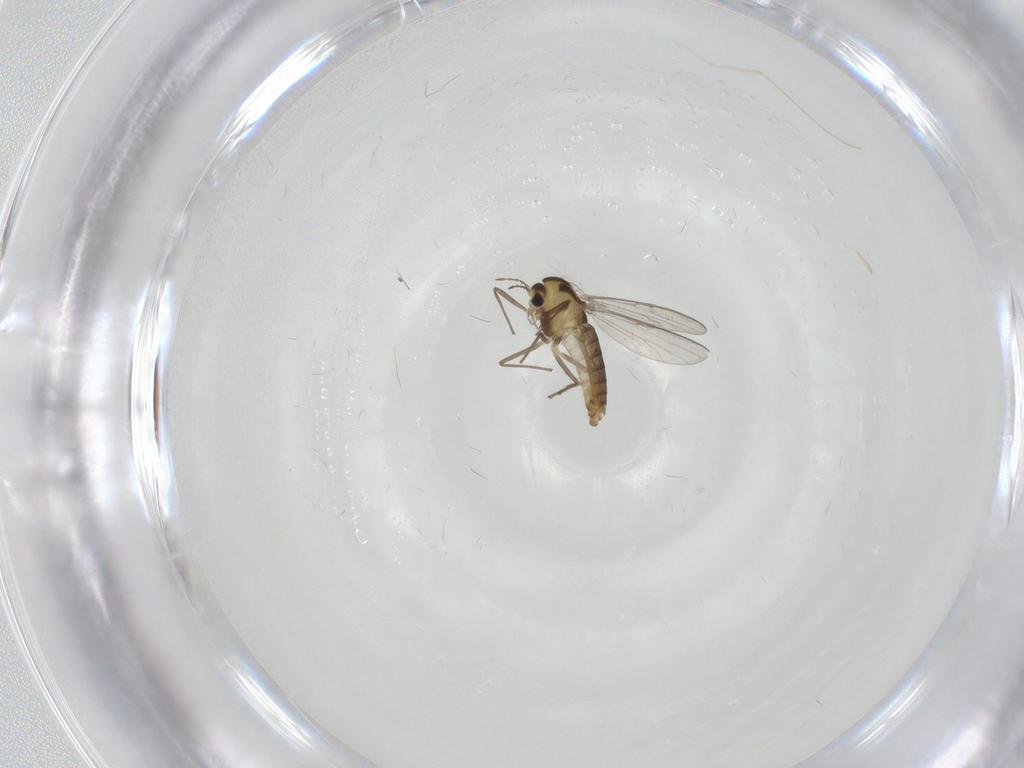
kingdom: Animalia
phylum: Arthropoda
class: Insecta
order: Diptera
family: Chironomidae
